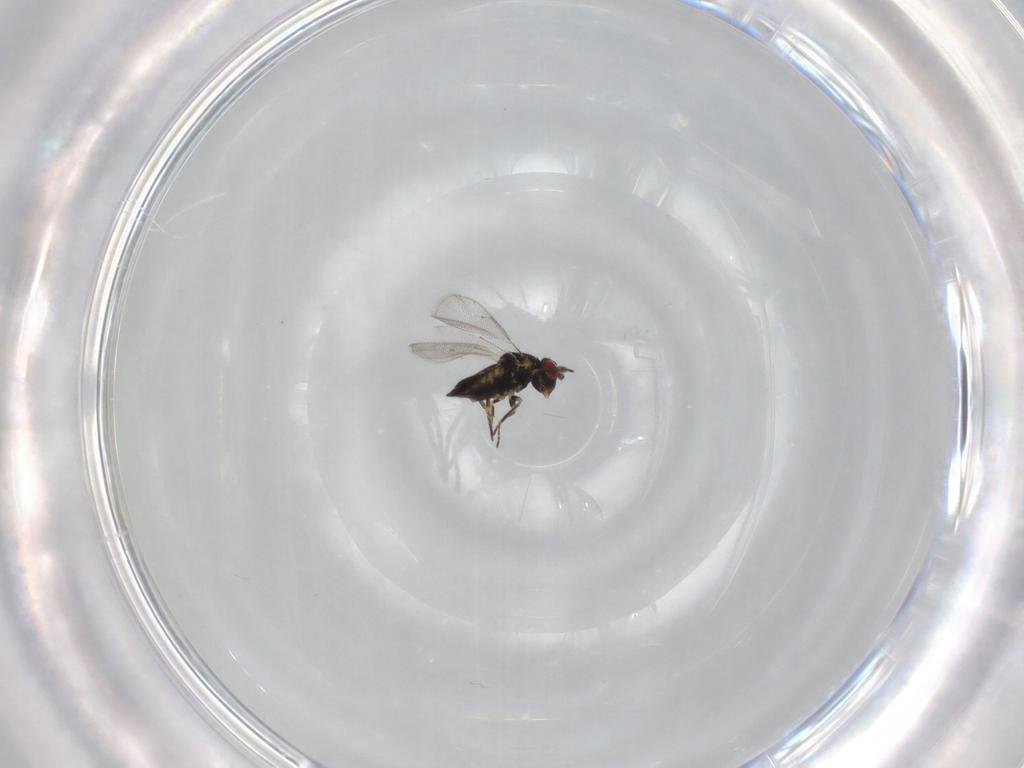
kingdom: Animalia
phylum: Arthropoda
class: Insecta
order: Hymenoptera
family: Eulophidae
